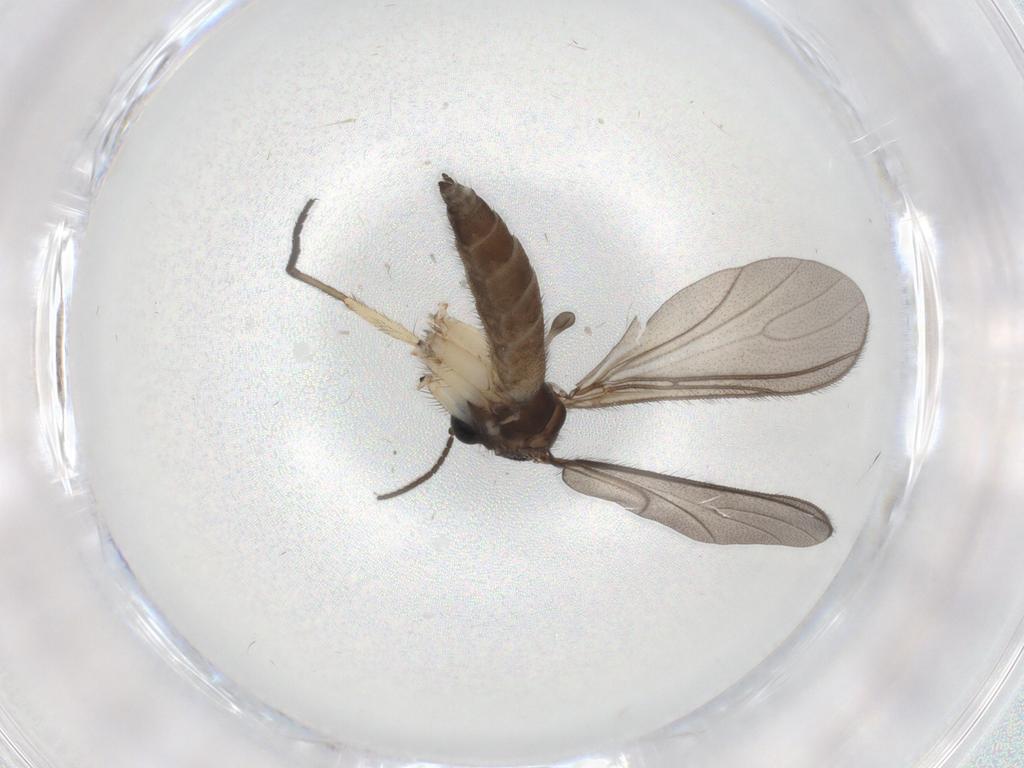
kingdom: Animalia
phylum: Arthropoda
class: Insecta
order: Diptera
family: Sciaridae
